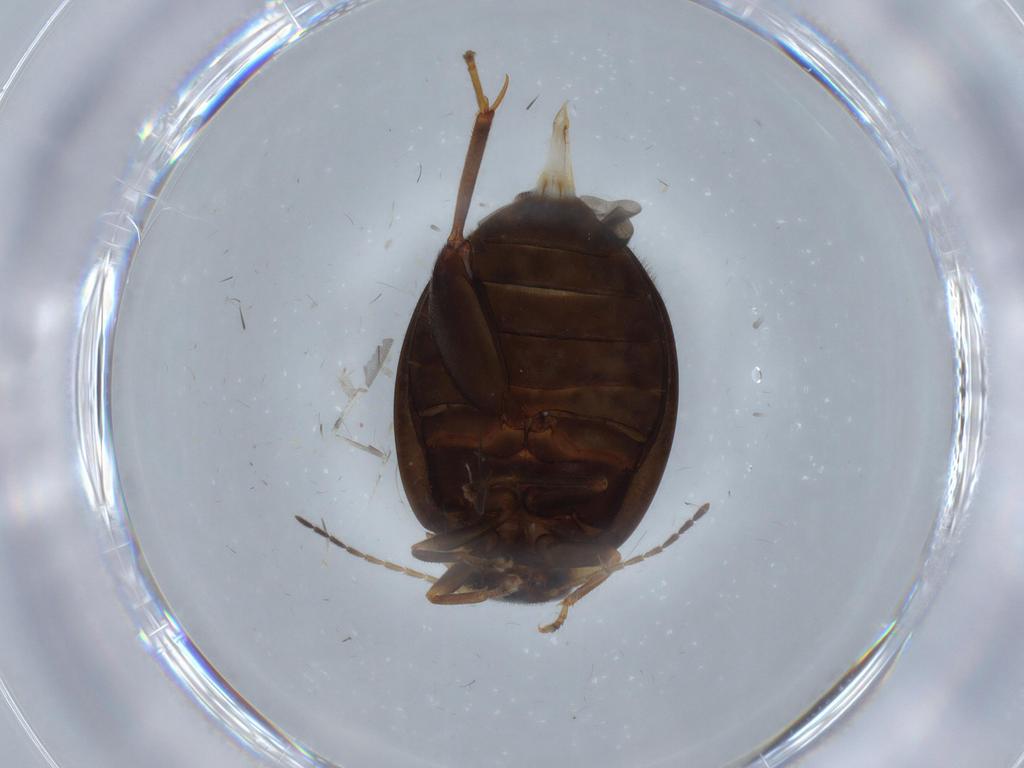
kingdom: Animalia
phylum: Arthropoda
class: Insecta
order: Coleoptera
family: Staphylinidae
